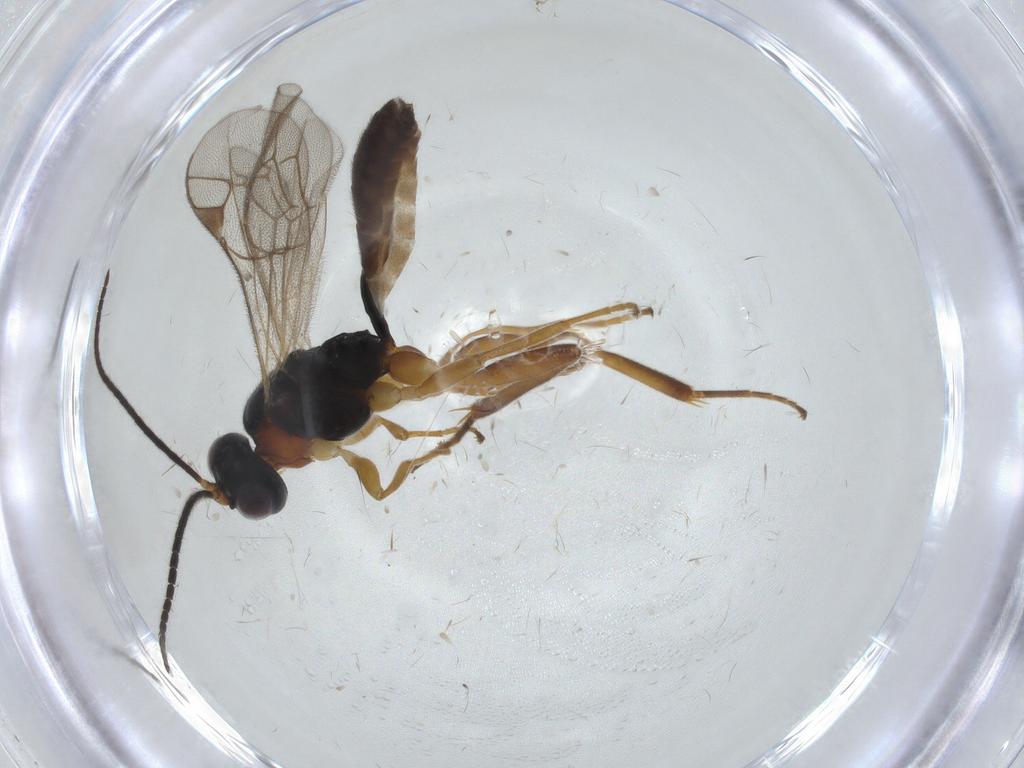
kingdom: Animalia
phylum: Arthropoda
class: Insecta
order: Hymenoptera
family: Ichneumonidae
